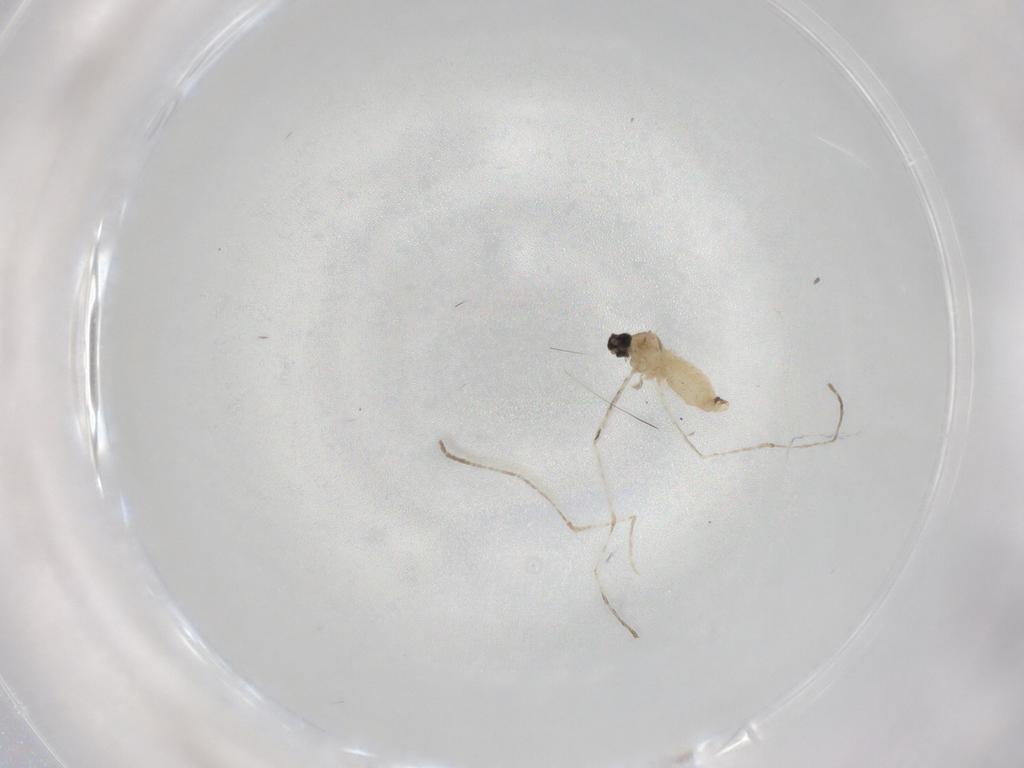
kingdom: Animalia
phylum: Arthropoda
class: Insecta
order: Diptera
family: Cecidomyiidae
